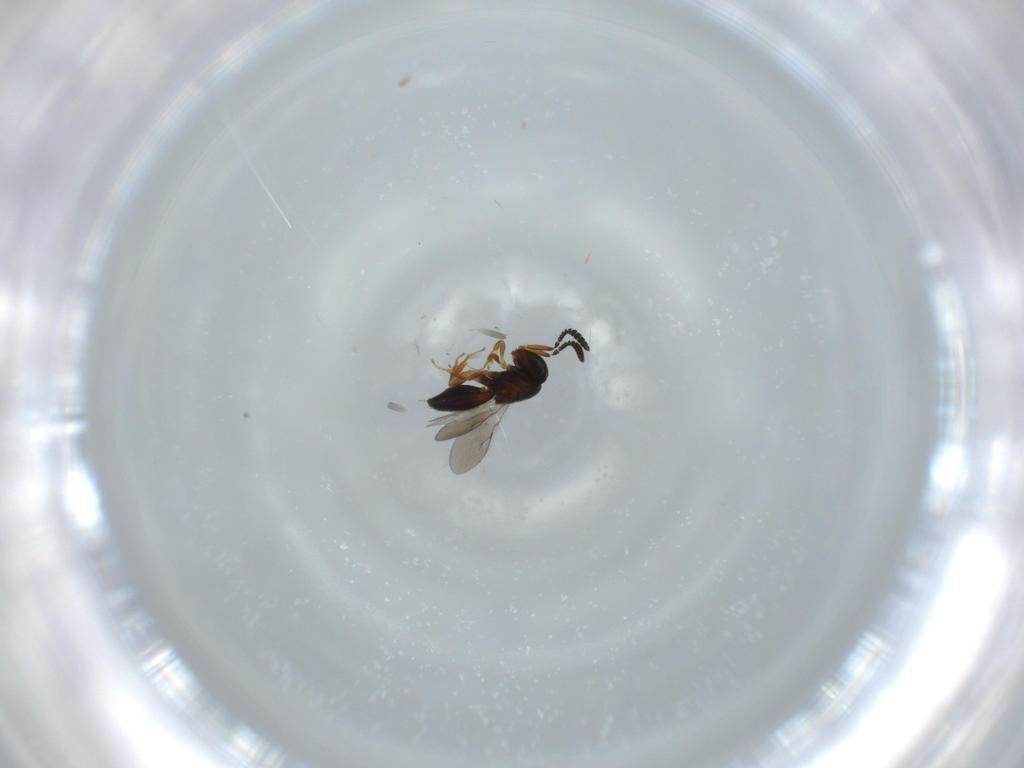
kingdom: Animalia
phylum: Arthropoda
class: Insecta
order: Hymenoptera
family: Scelionidae
